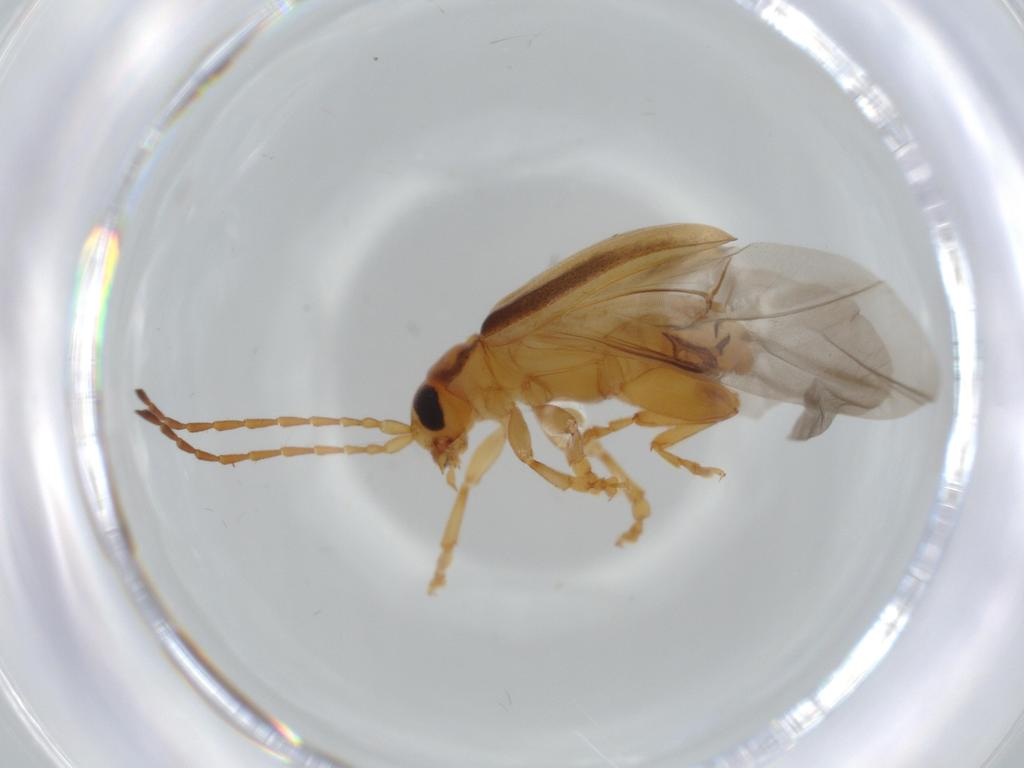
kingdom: Animalia
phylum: Arthropoda
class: Insecta
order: Coleoptera
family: Chrysomelidae
